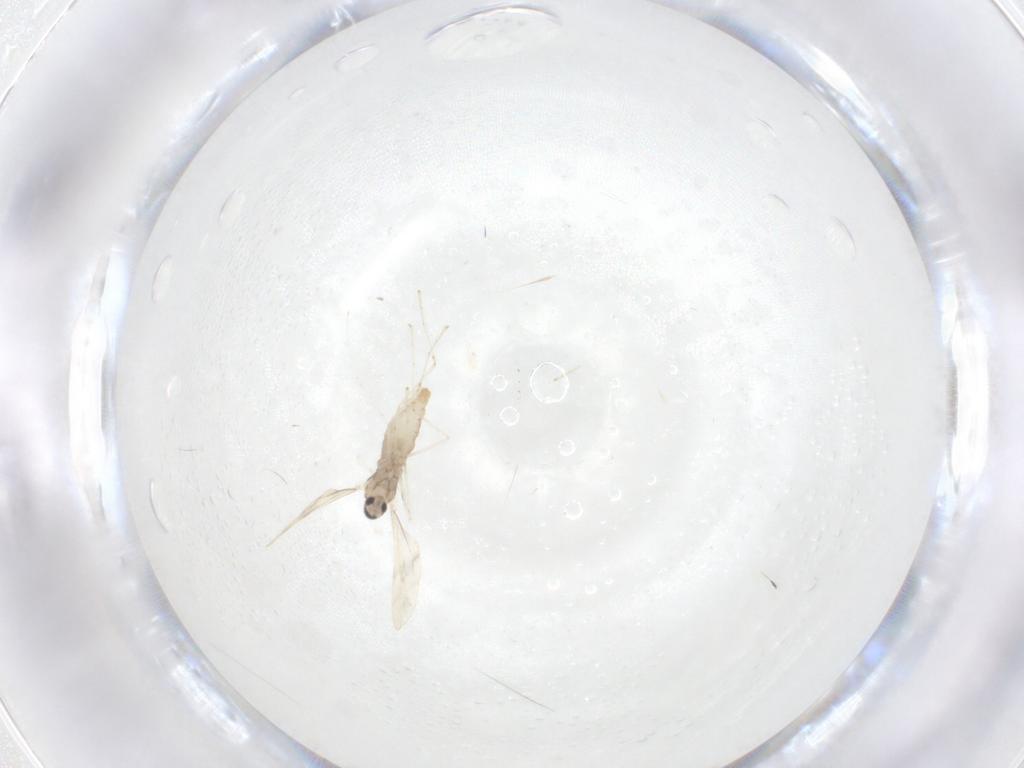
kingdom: Animalia
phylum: Arthropoda
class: Insecta
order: Diptera
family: Cecidomyiidae
